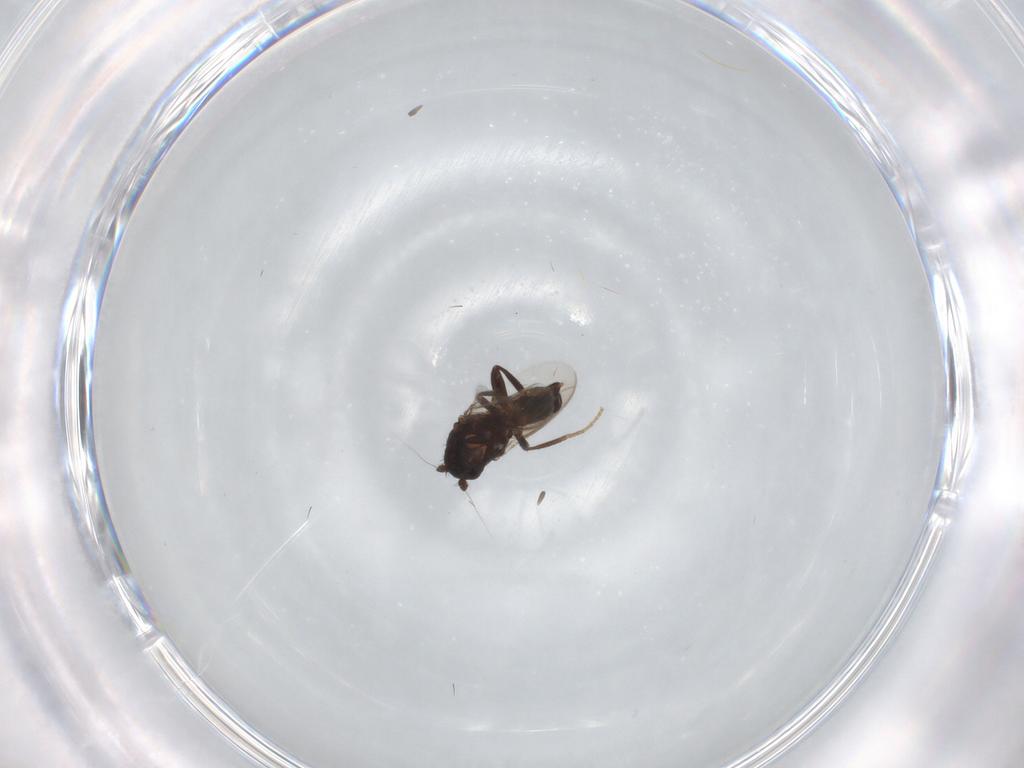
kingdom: Animalia
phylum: Arthropoda
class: Insecta
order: Diptera
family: Sphaeroceridae
